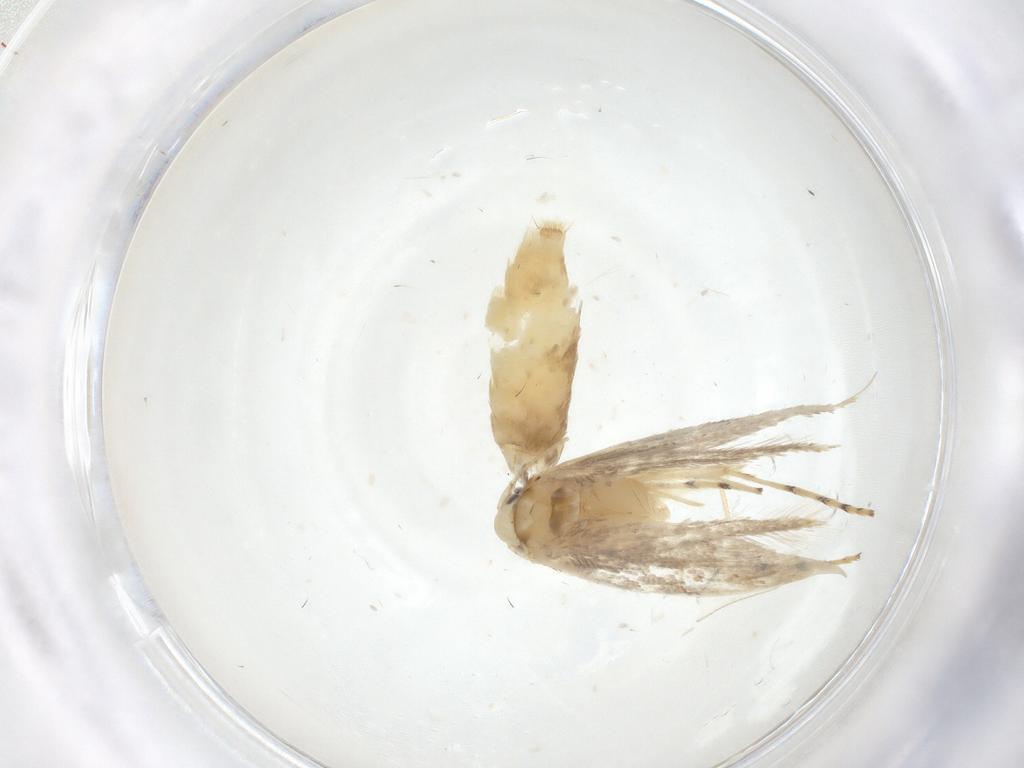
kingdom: Animalia
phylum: Arthropoda
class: Insecta
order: Lepidoptera
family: Gracillariidae
